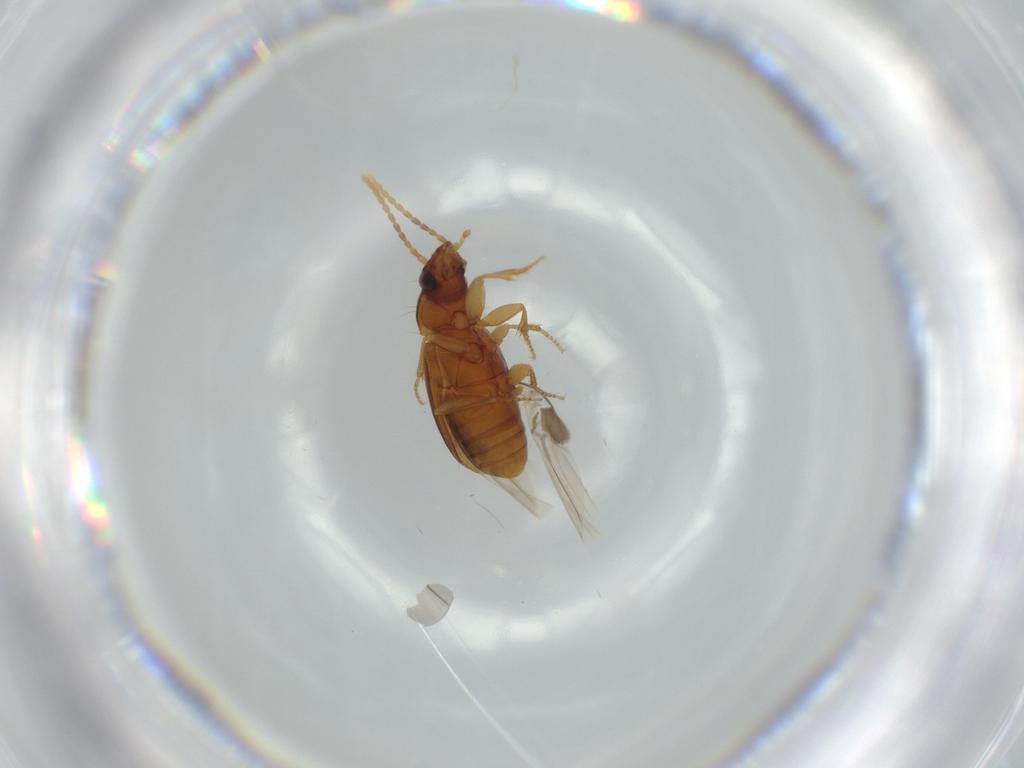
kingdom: Animalia
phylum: Arthropoda
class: Insecta
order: Coleoptera
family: Carabidae
